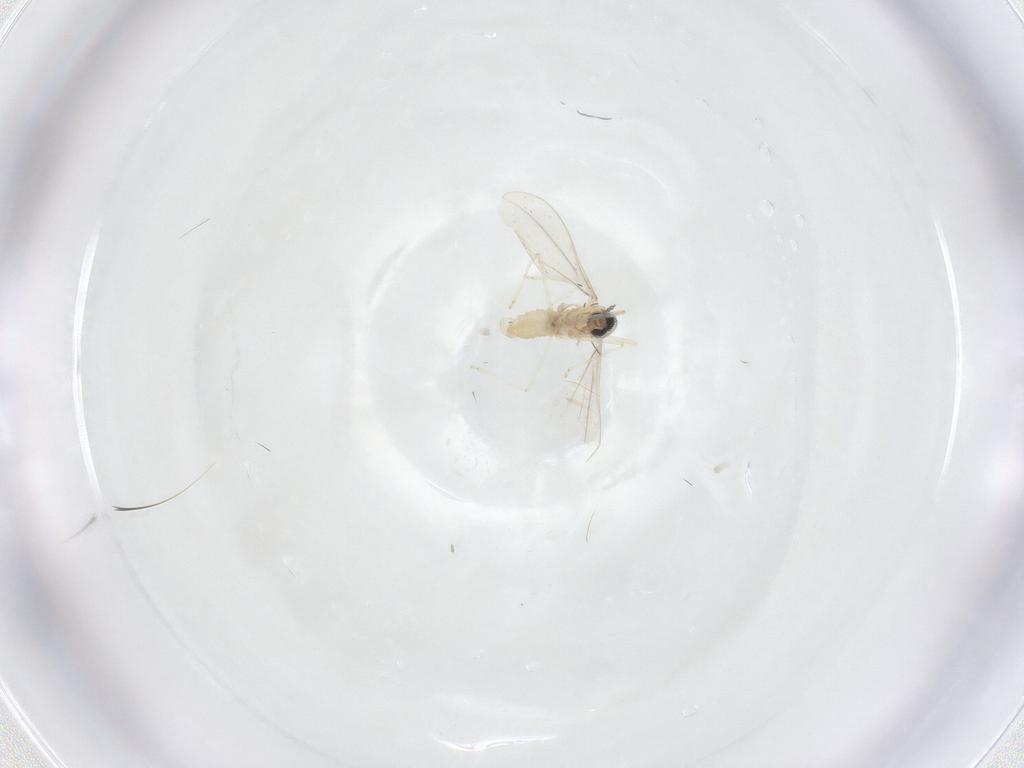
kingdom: Animalia
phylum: Arthropoda
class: Insecta
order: Diptera
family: Cecidomyiidae
